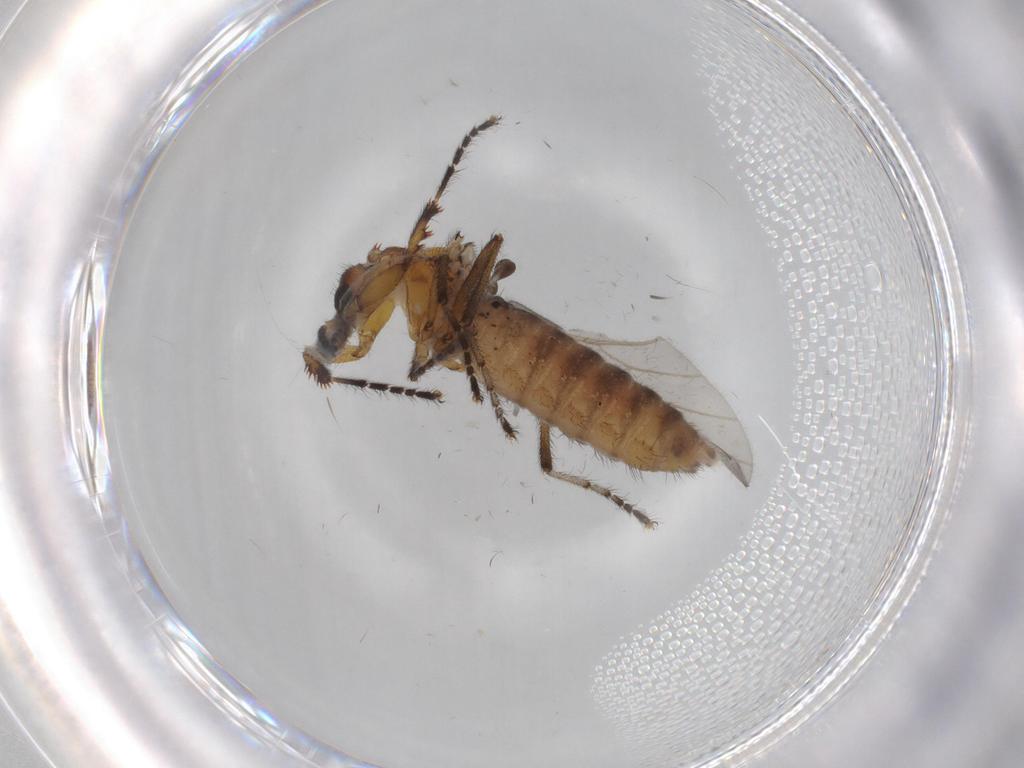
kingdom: Animalia
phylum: Arthropoda
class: Insecta
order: Diptera
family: Bibionidae
